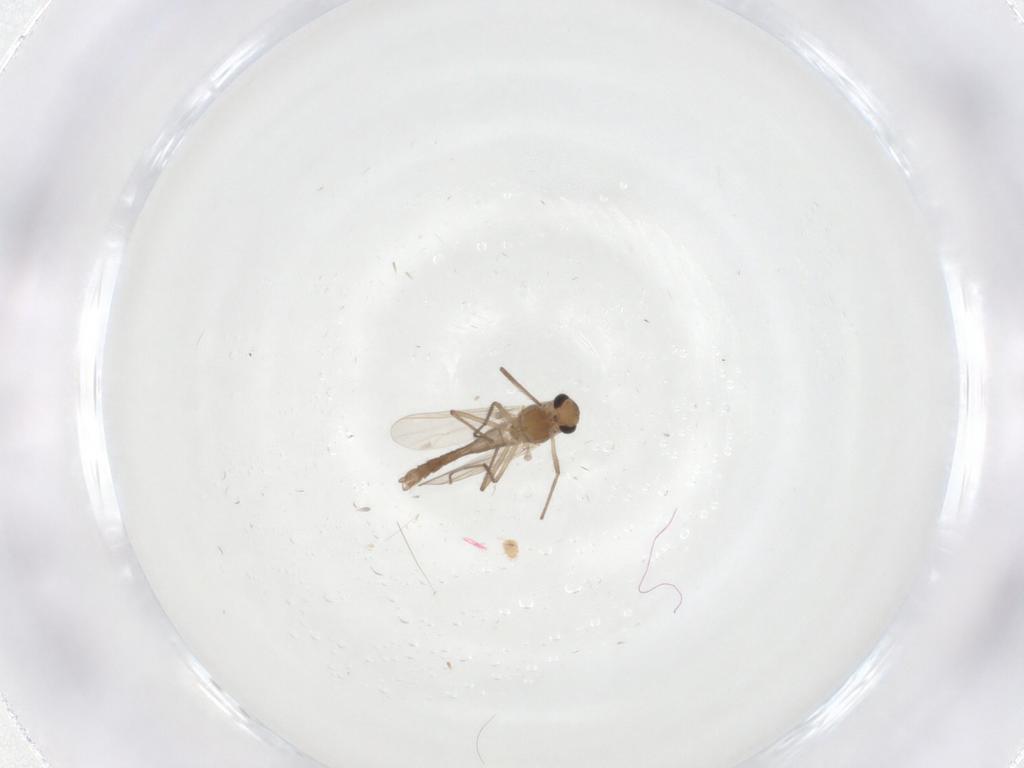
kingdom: Animalia
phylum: Arthropoda
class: Insecta
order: Diptera
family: Chironomidae
